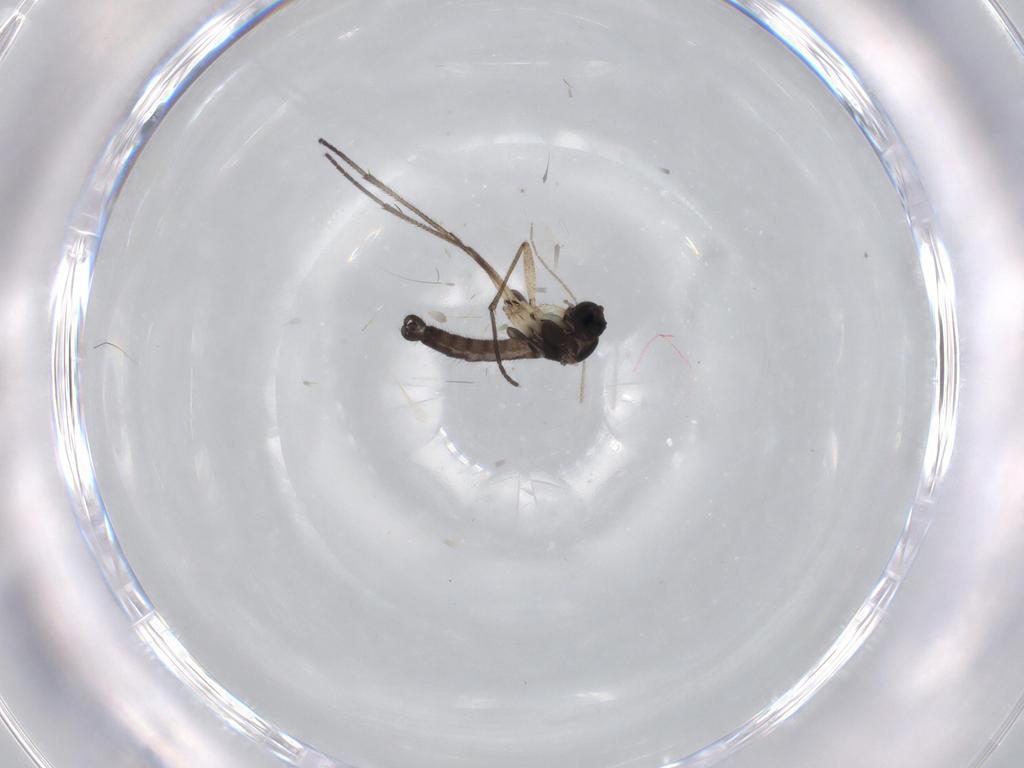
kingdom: Animalia
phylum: Arthropoda
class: Insecta
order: Diptera
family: Sciaridae
